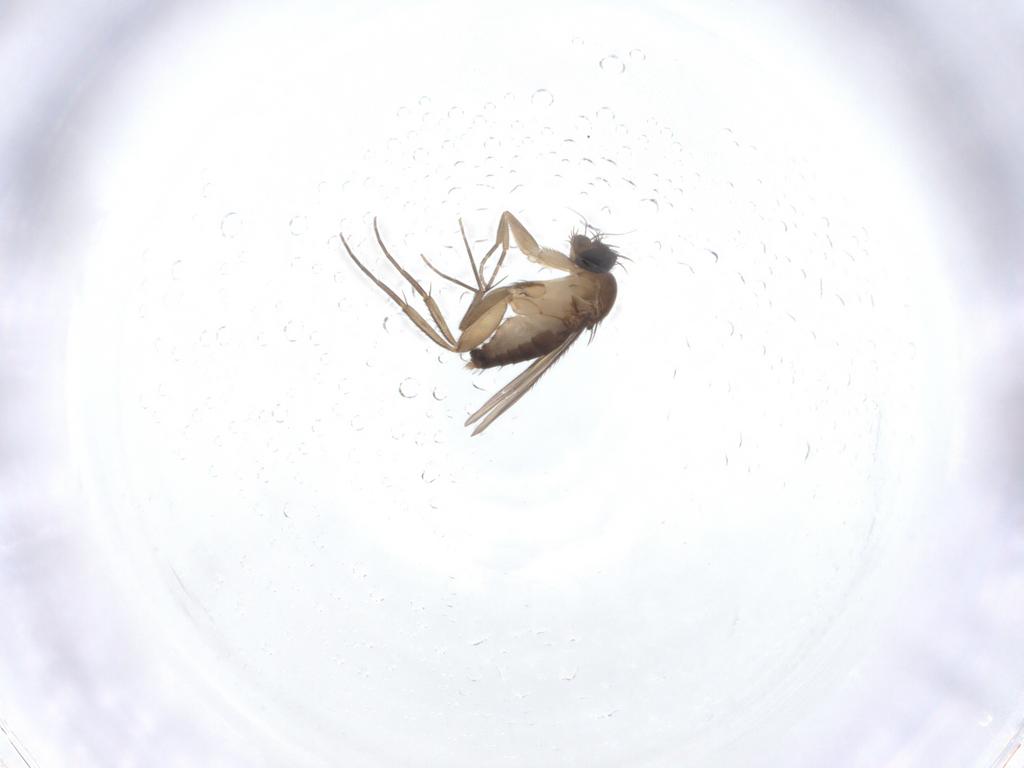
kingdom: Animalia
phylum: Arthropoda
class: Insecta
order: Diptera
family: Phoridae
